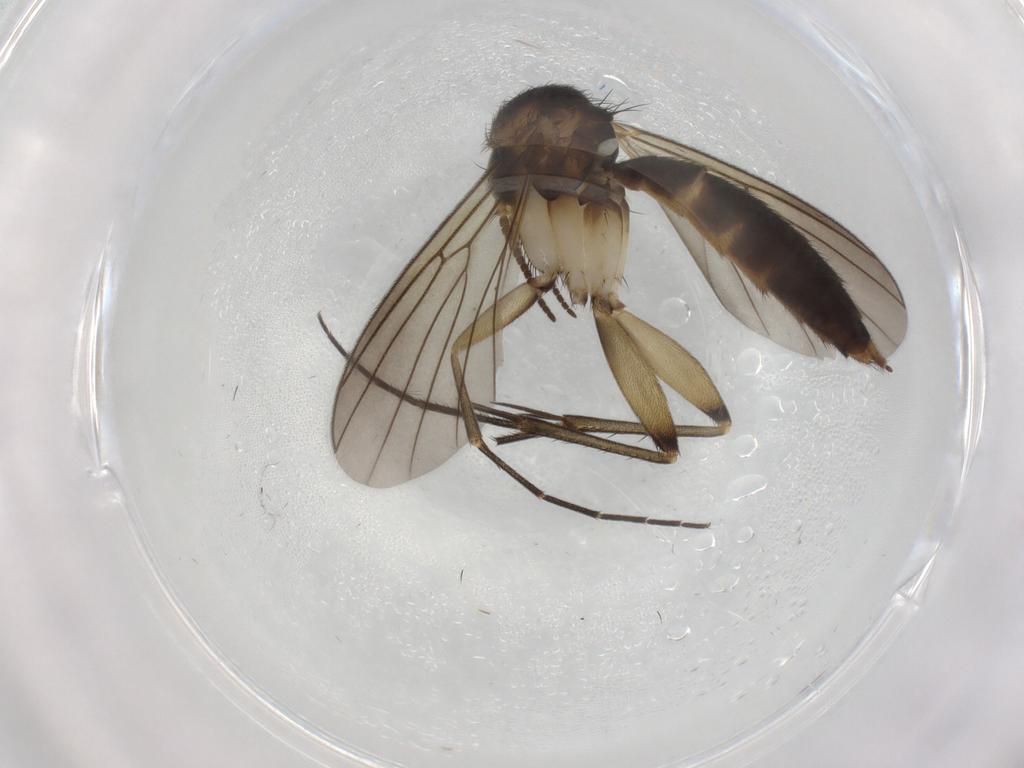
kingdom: Animalia
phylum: Arthropoda
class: Insecta
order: Diptera
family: Mycetophilidae
